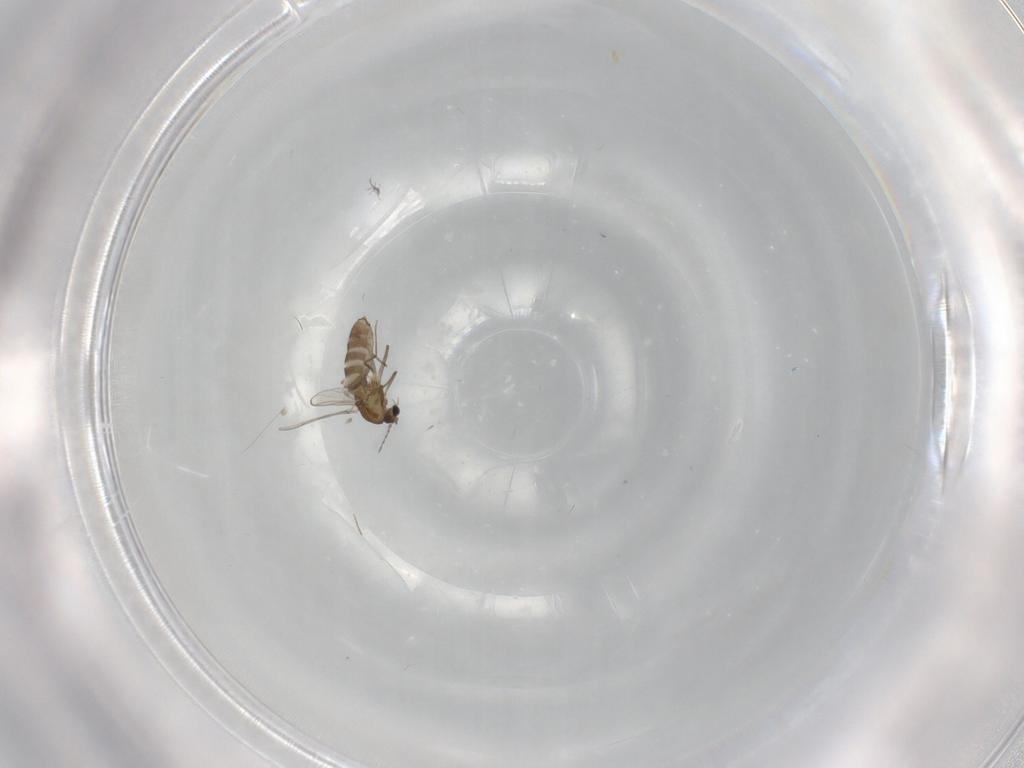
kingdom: Animalia
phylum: Arthropoda
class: Insecta
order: Diptera
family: Chironomidae
